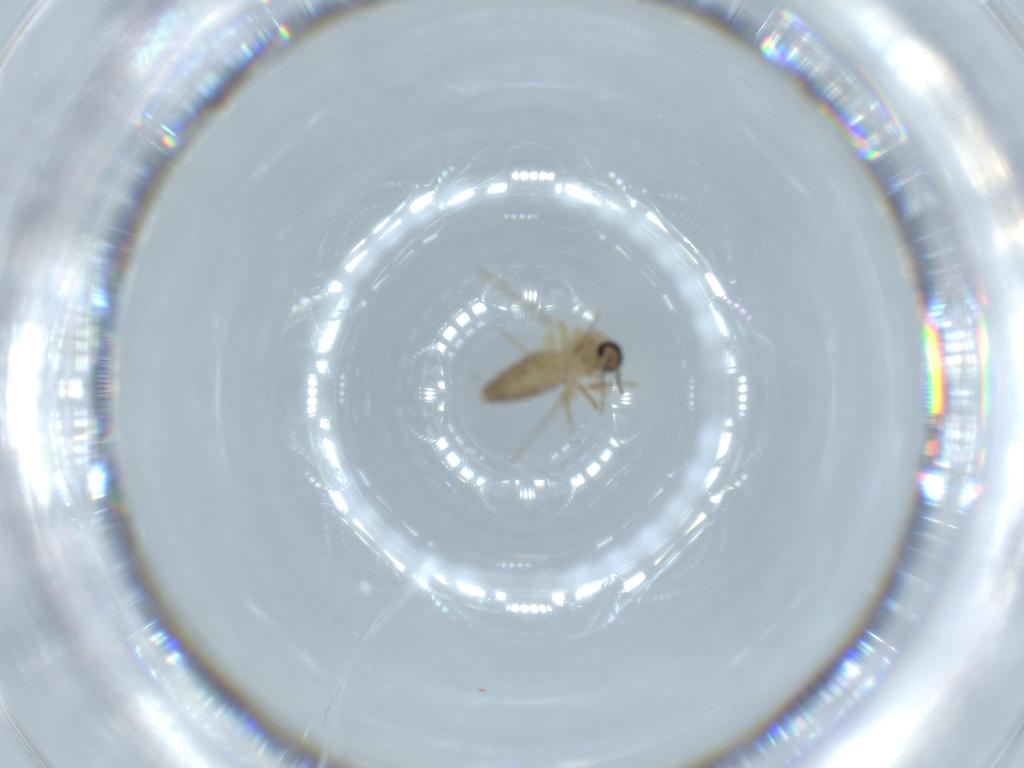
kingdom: Animalia
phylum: Arthropoda
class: Insecta
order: Diptera
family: Ceratopogonidae
